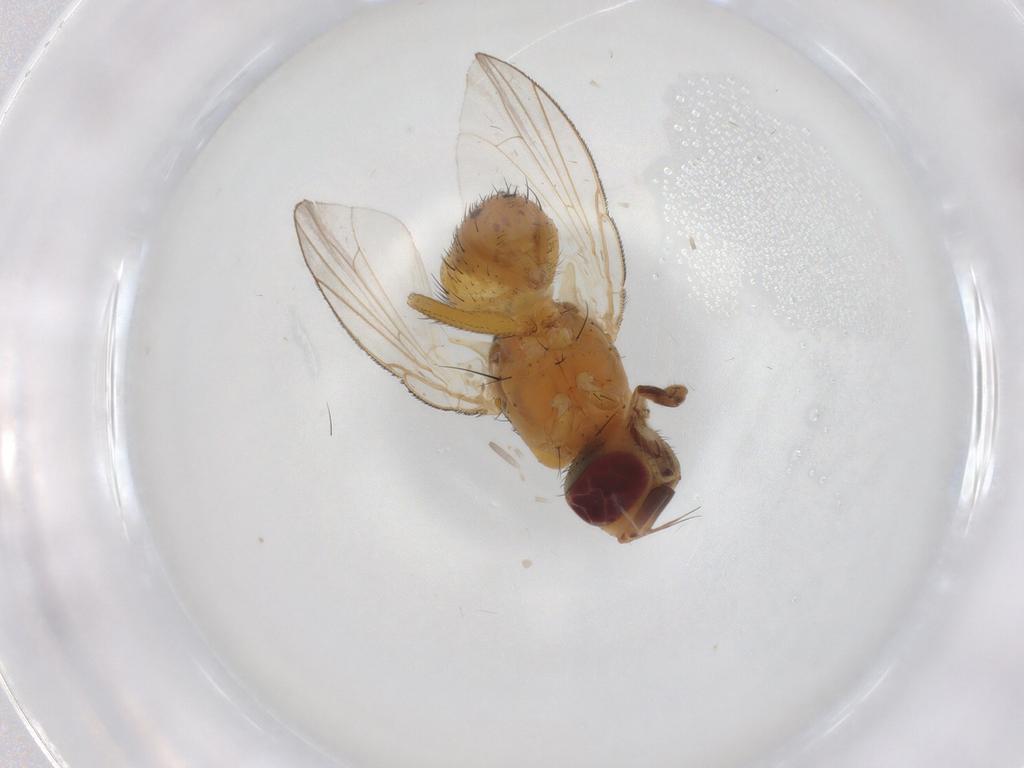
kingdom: Animalia
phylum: Arthropoda
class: Insecta
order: Diptera
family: Muscidae
